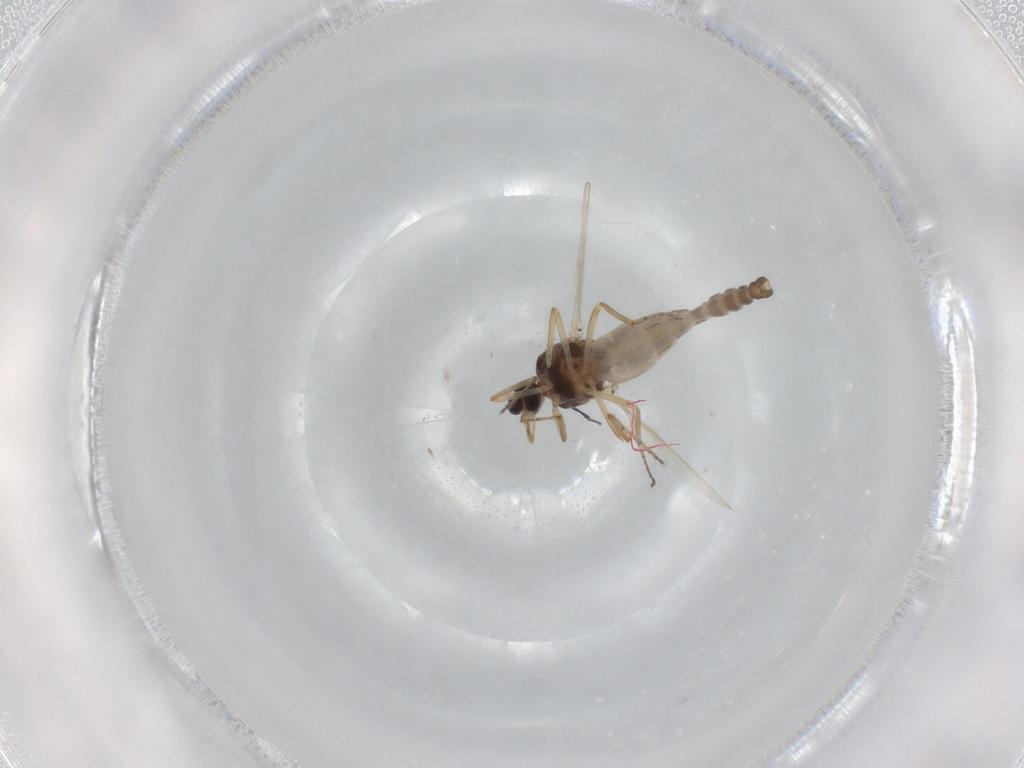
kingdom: Animalia
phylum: Arthropoda
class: Insecta
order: Diptera
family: Ceratopogonidae
